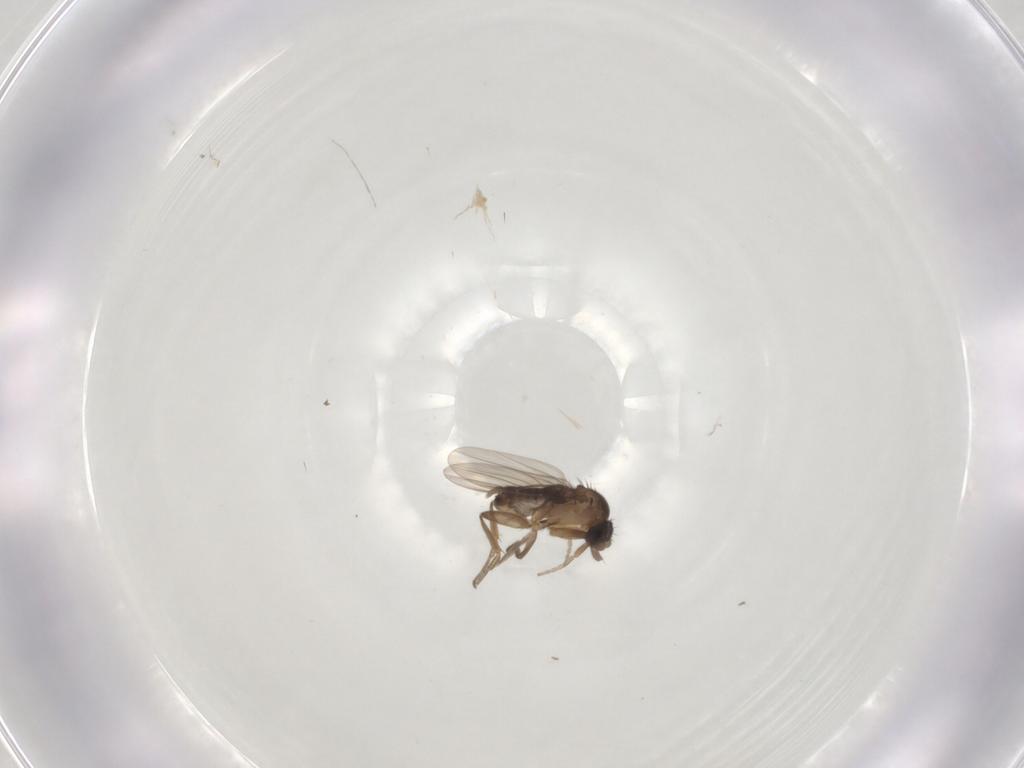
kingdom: Animalia
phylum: Arthropoda
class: Insecta
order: Diptera
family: Phoridae
